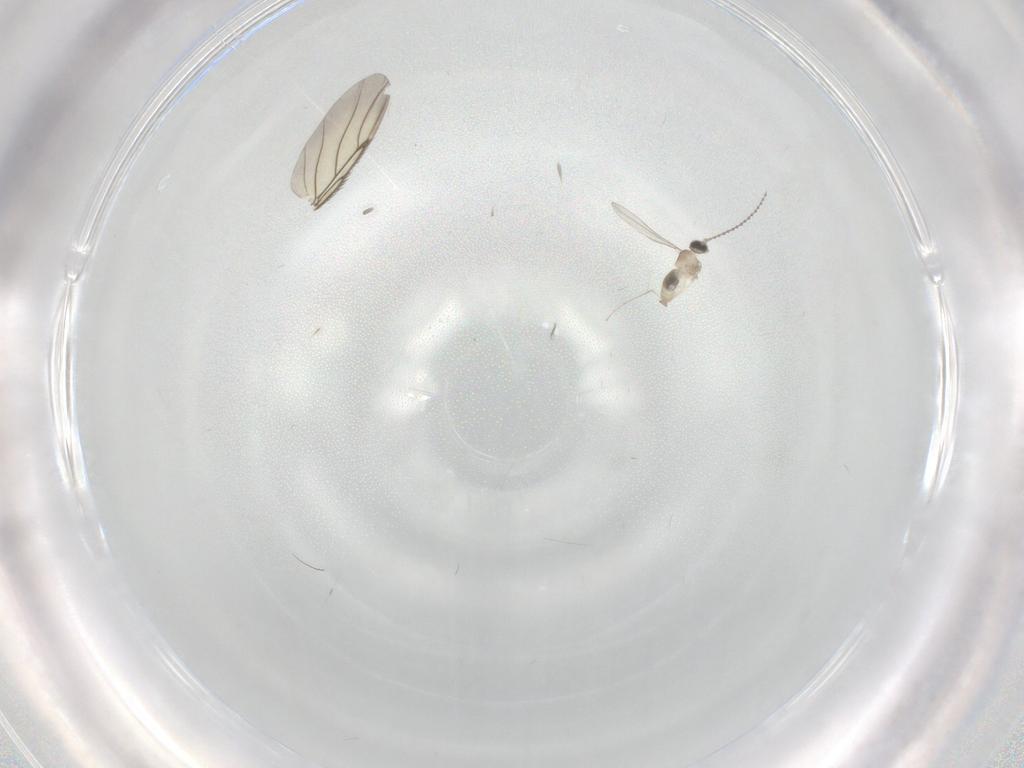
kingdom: Animalia
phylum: Arthropoda
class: Insecta
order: Diptera
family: Cecidomyiidae
